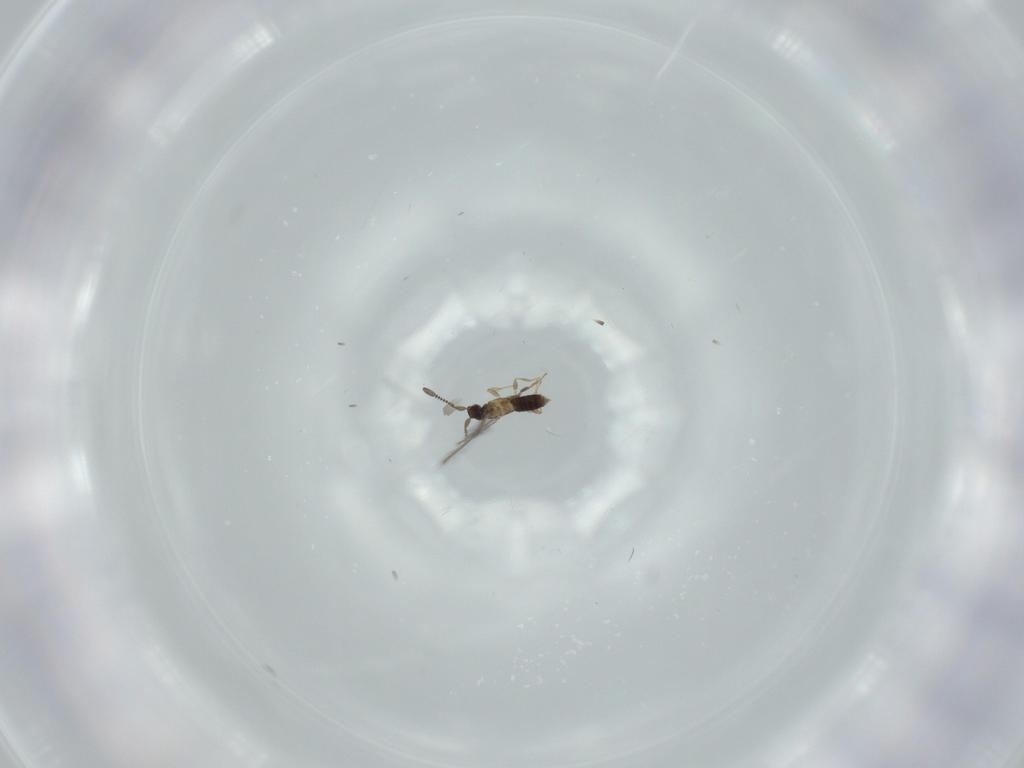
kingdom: Animalia
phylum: Arthropoda
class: Insecta
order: Hymenoptera
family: Mymaridae
